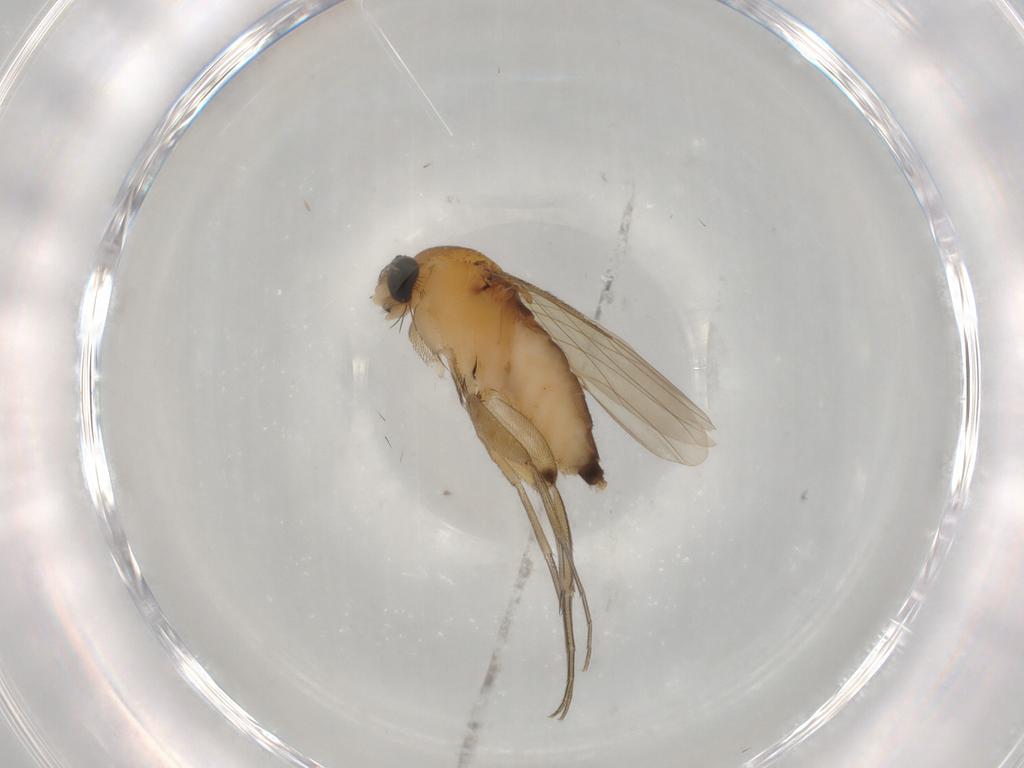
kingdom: Animalia
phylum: Arthropoda
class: Insecta
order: Diptera
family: Phoridae
